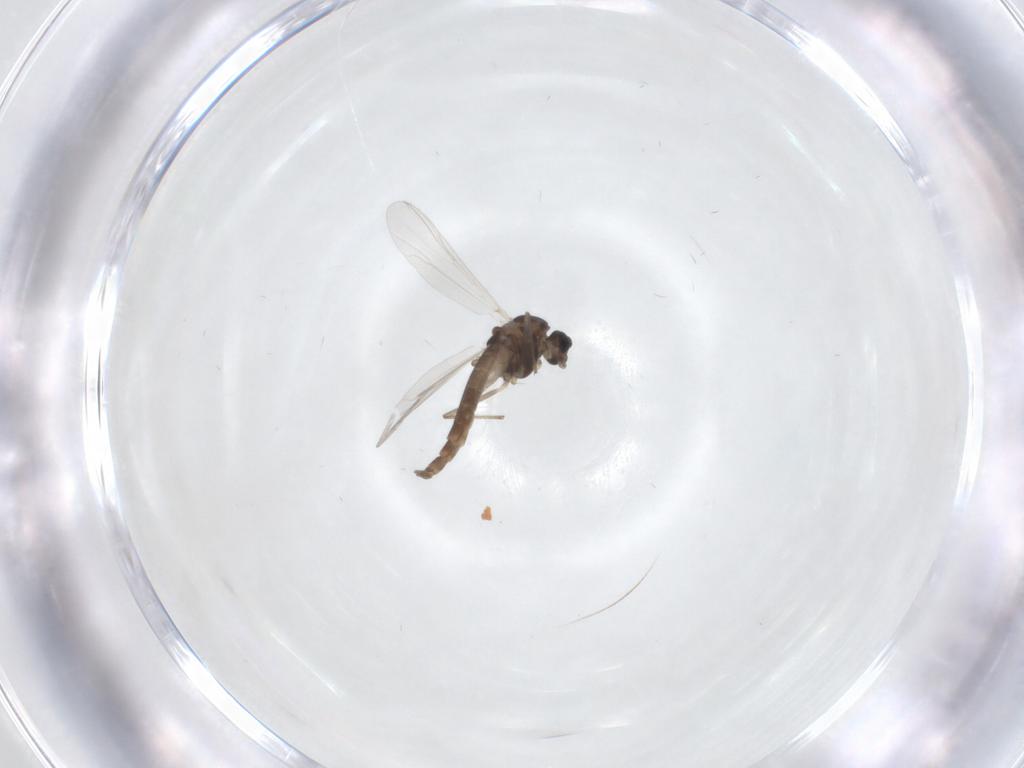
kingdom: Animalia
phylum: Arthropoda
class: Insecta
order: Diptera
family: Chironomidae
